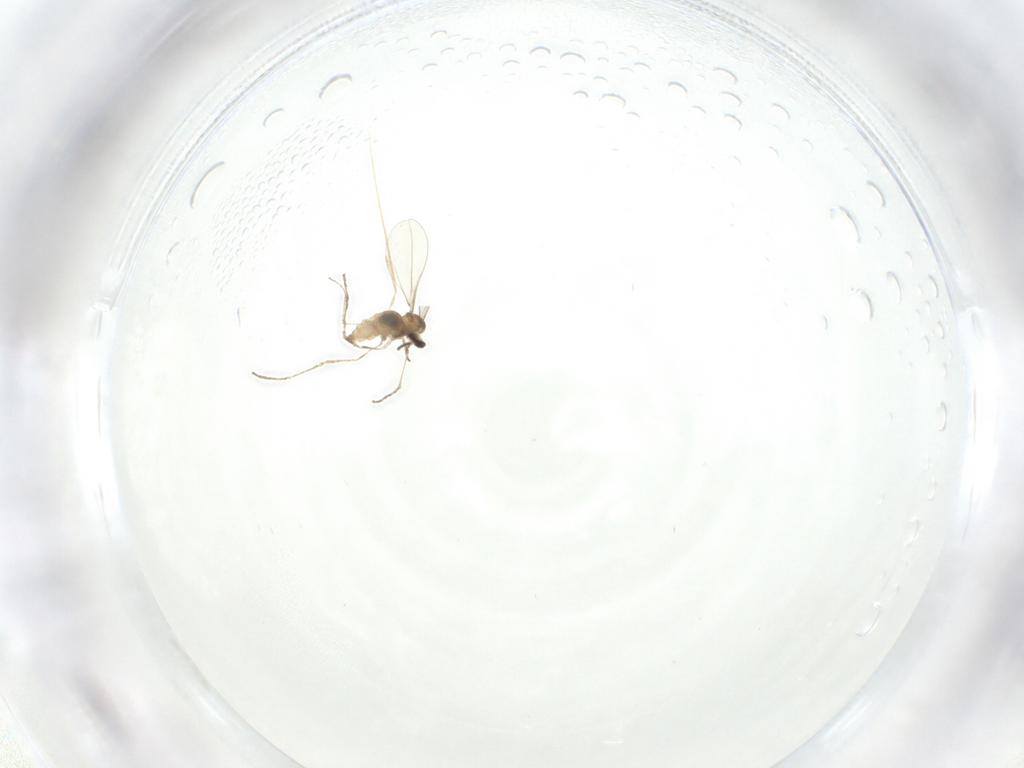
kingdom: Animalia
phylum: Arthropoda
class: Insecta
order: Diptera
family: Cecidomyiidae
